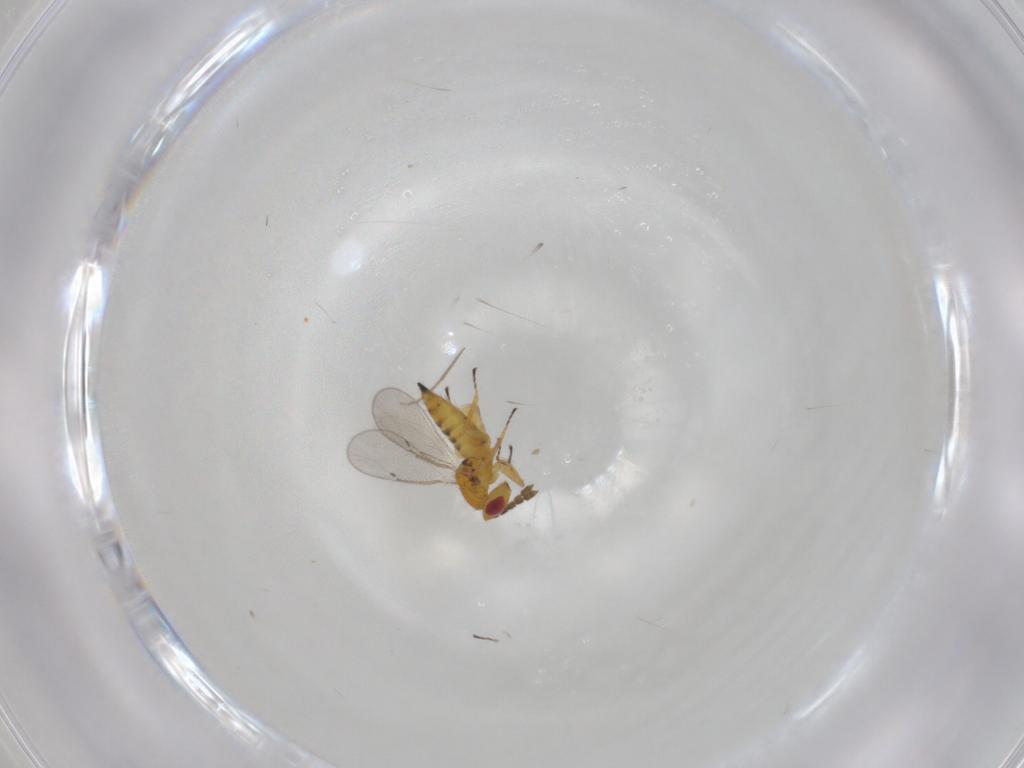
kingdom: Animalia
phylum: Arthropoda
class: Insecta
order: Hymenoptera
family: Eulophidae
